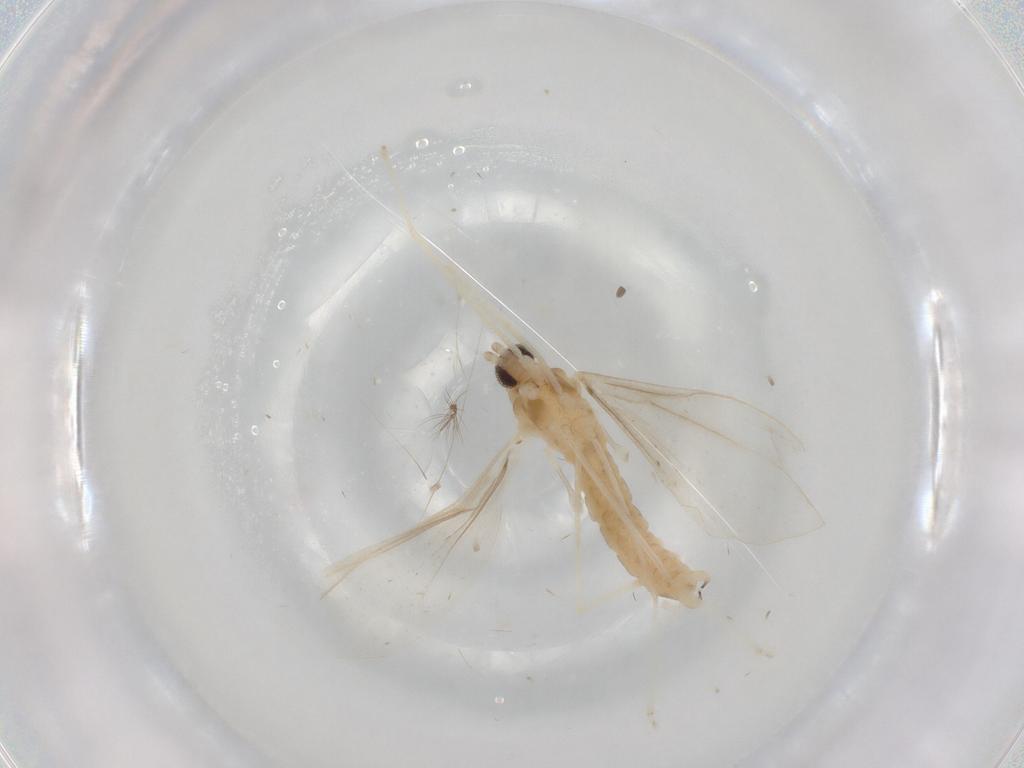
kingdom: Animalia
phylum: Arthropoda
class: Insecta
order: Diptera
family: Cecidomyiidae
